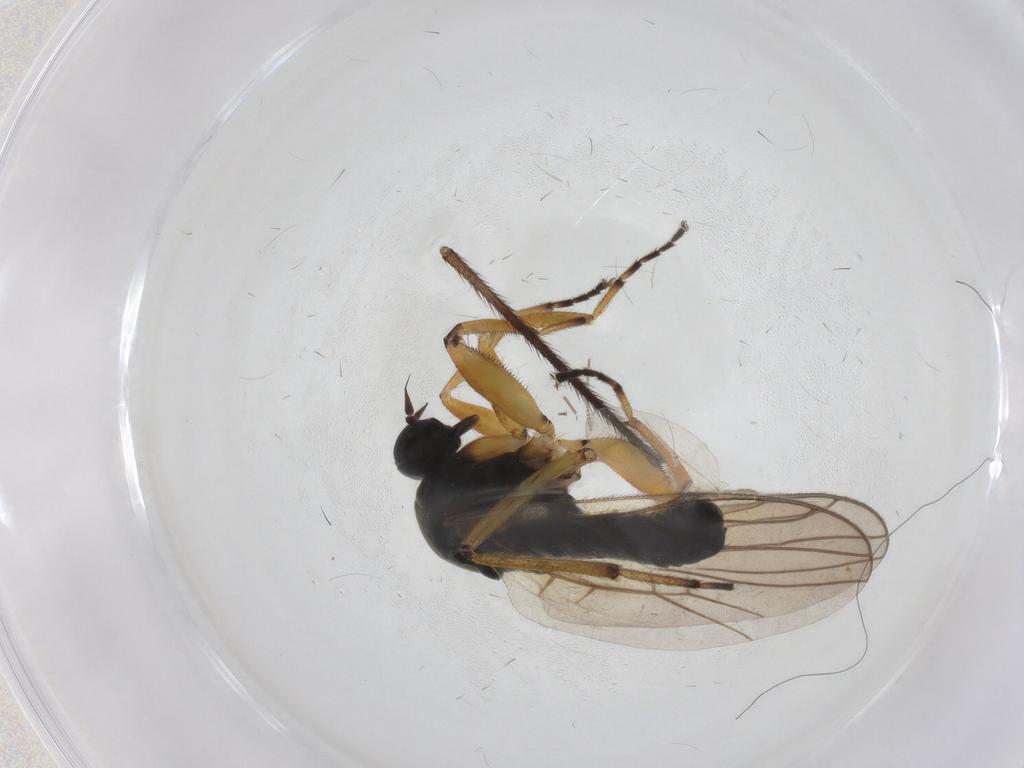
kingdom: Animalia
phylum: Arthropoda
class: Insecta
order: Diptera
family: Hybotidae
